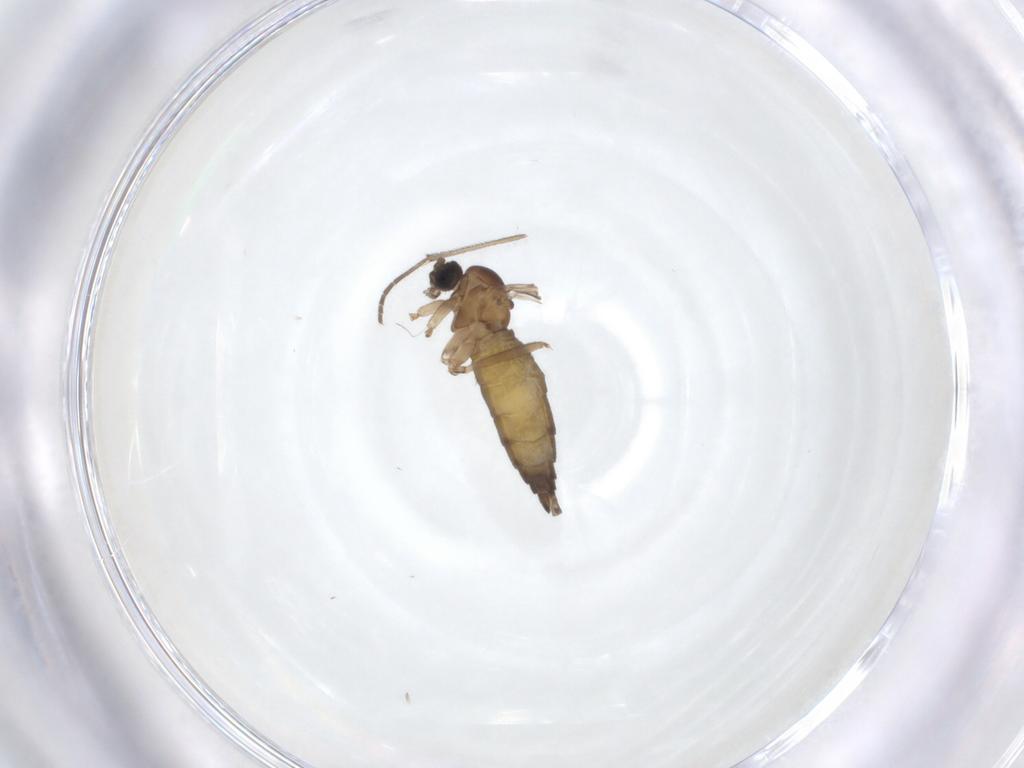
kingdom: Animalia
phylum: Arthropoda
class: Insecta
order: Diptera
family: Sciaridae
